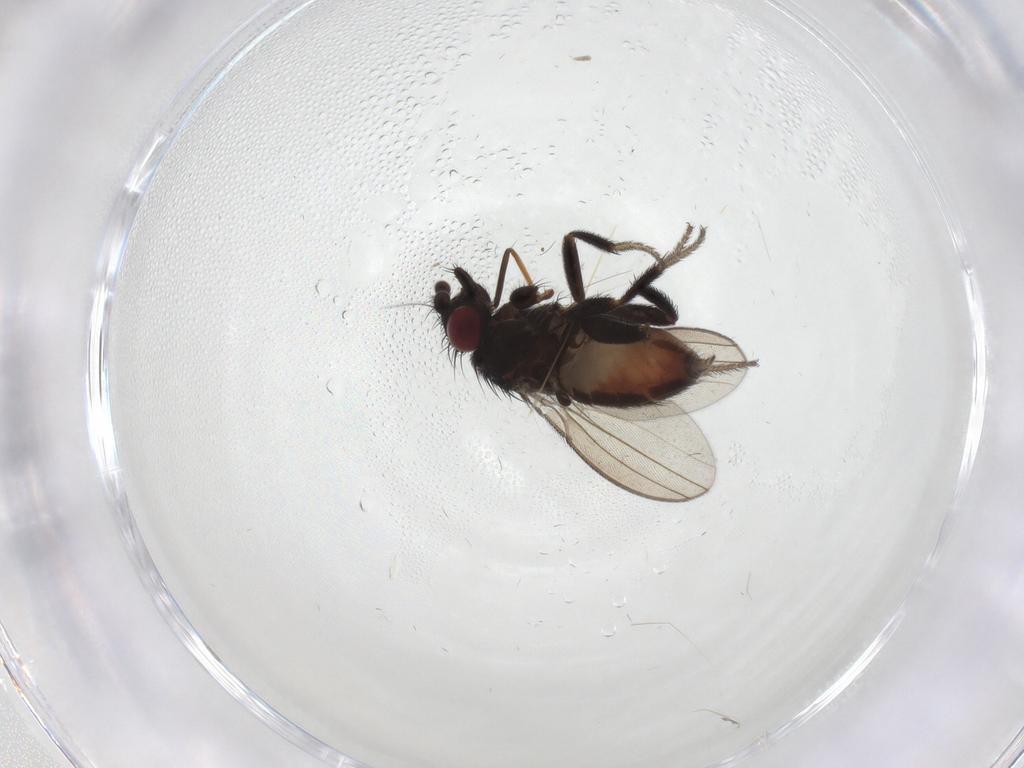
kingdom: Animalia
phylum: Arthropoda
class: Insecta
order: Diptera
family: Milichiidae
